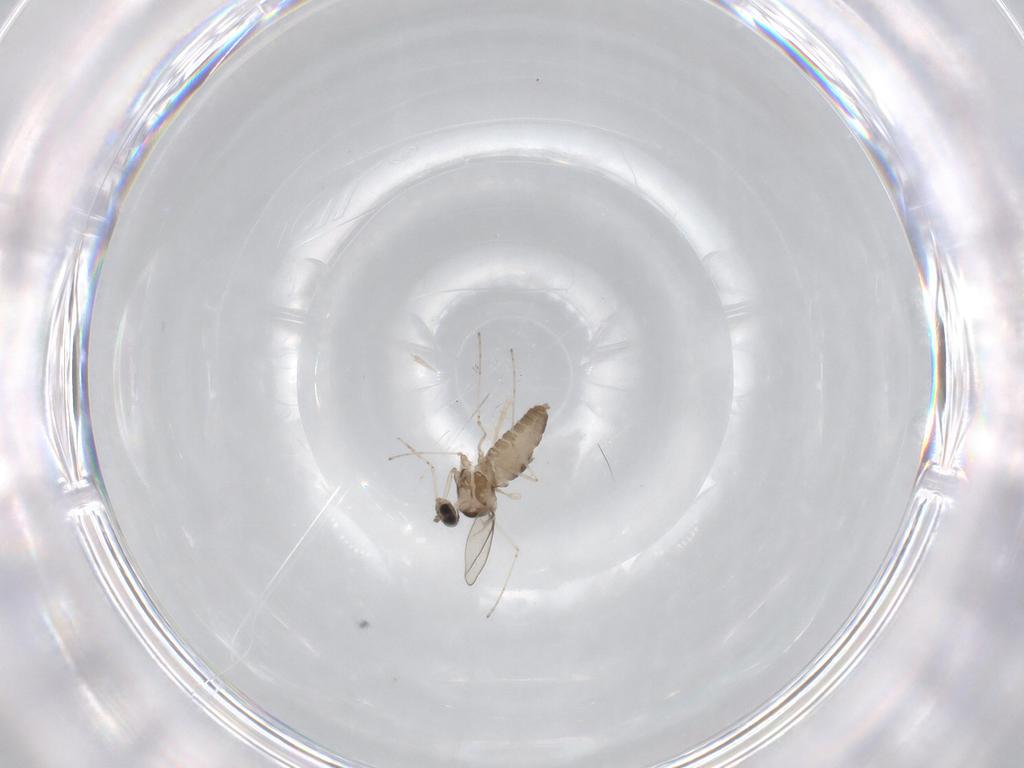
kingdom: Animalia
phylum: Arthropoda
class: Insecta
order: Diptera
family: Cecidomyiidae
